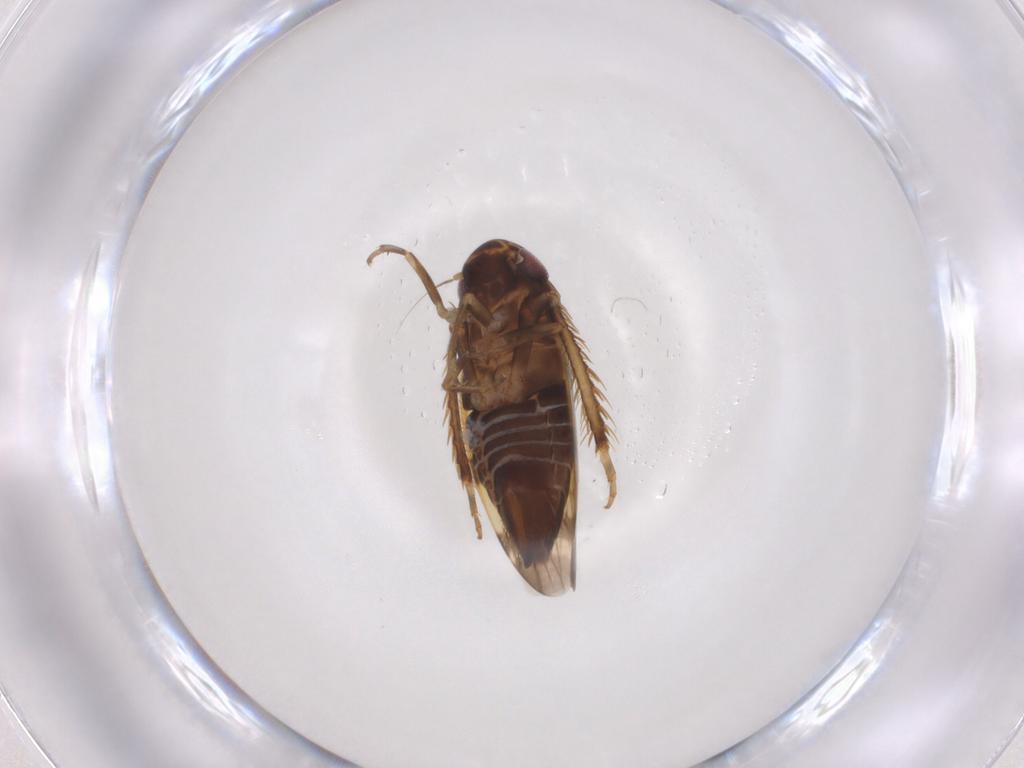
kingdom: Animalia
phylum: Arthropoda
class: Insecta
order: Hemiptera
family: Cicadellidae
